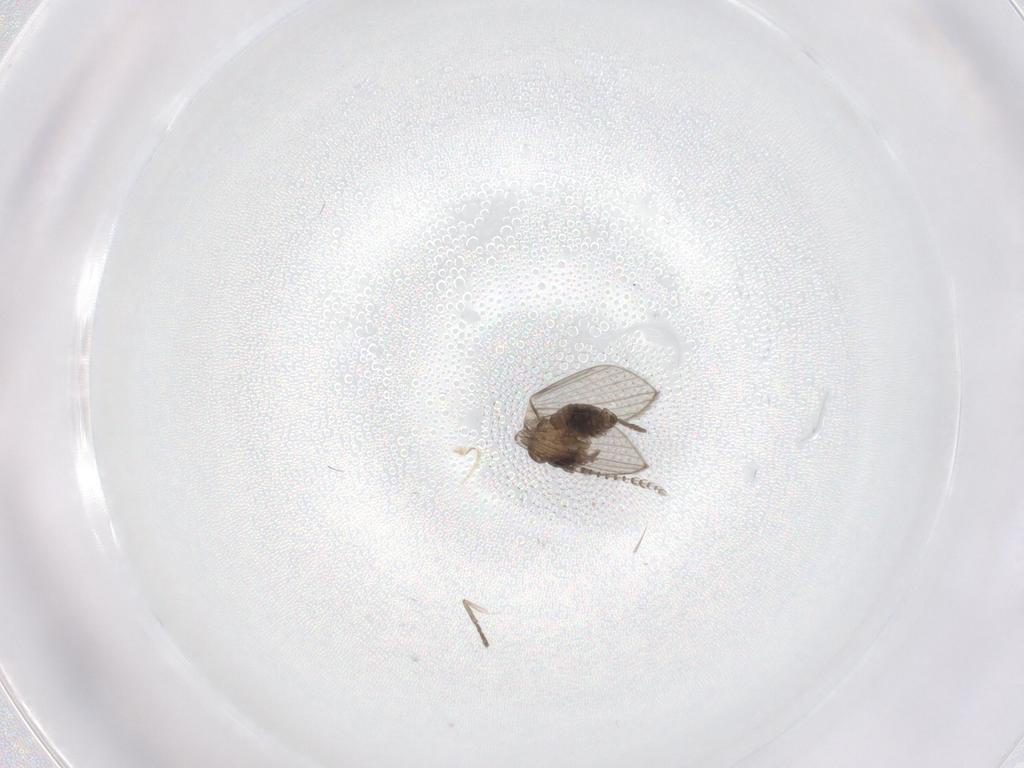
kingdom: Animalia
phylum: Arthropoda
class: Insecta
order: Diptera
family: Psychodidae
